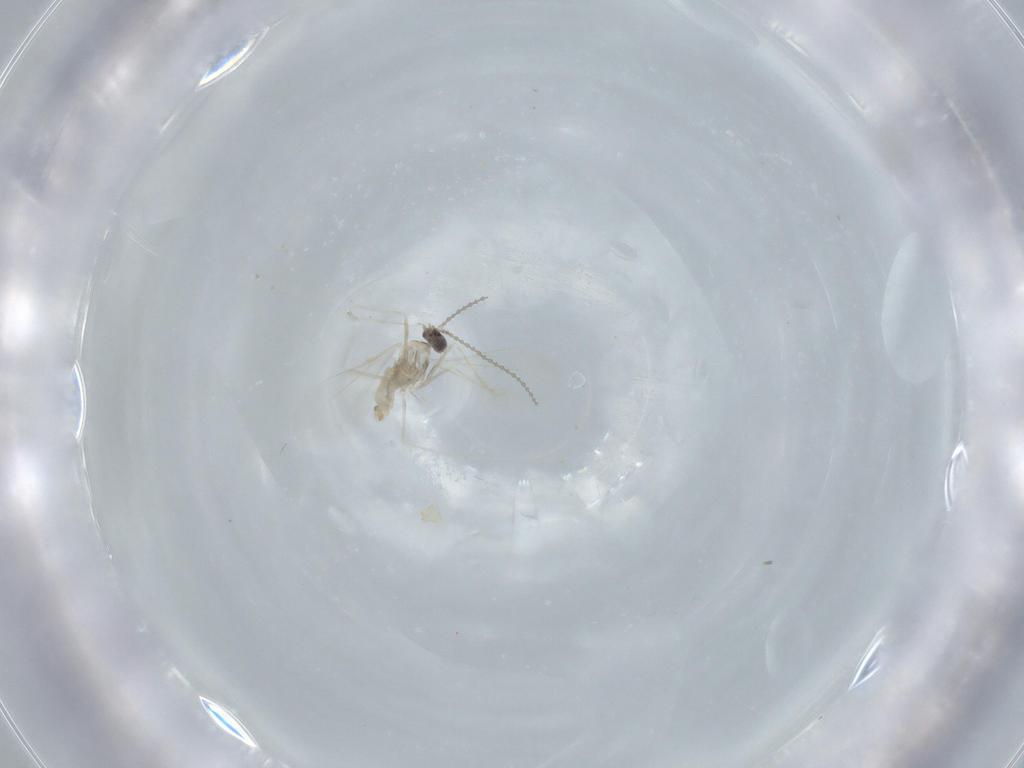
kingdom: Animalia
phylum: Arthropoda
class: Insecta
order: Diptera
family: Cecidomyiidae
